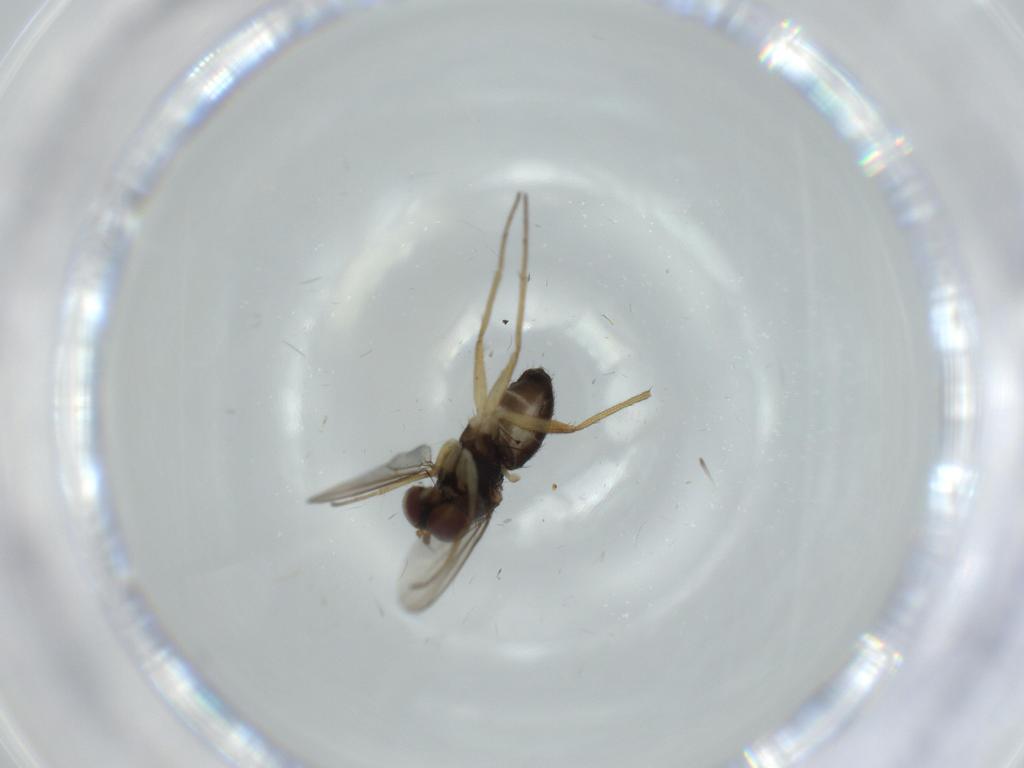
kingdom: Animalia
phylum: Arthropoda
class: Insecta
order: Diptera
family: Dolichopodidae
